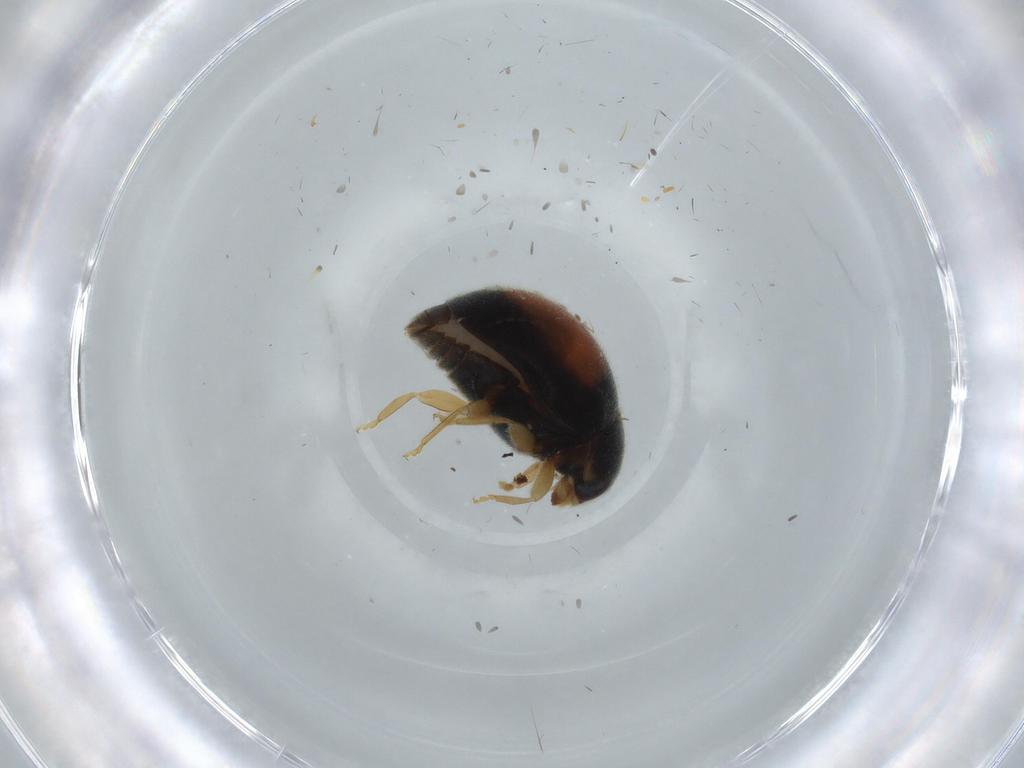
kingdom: Animalia
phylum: Arthropoda
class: Insecta
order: Coleoptera
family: Coccinellidae
